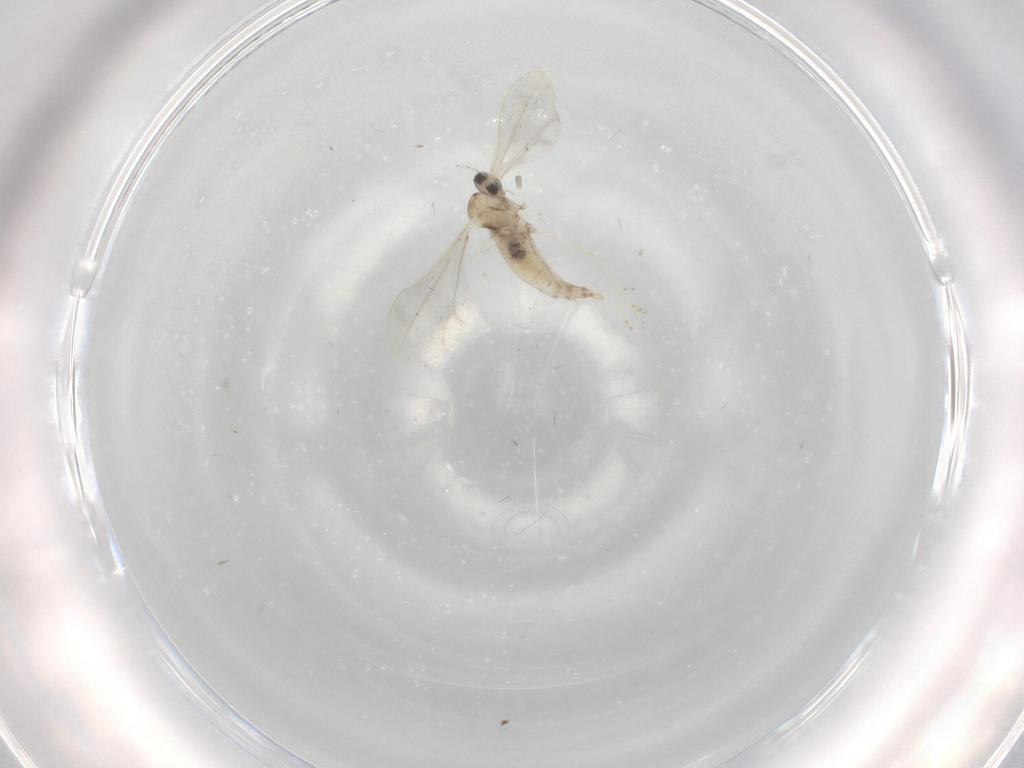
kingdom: Animalia
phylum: Arthropoda
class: Insecta
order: Diptera
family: Cecidomyiidae
